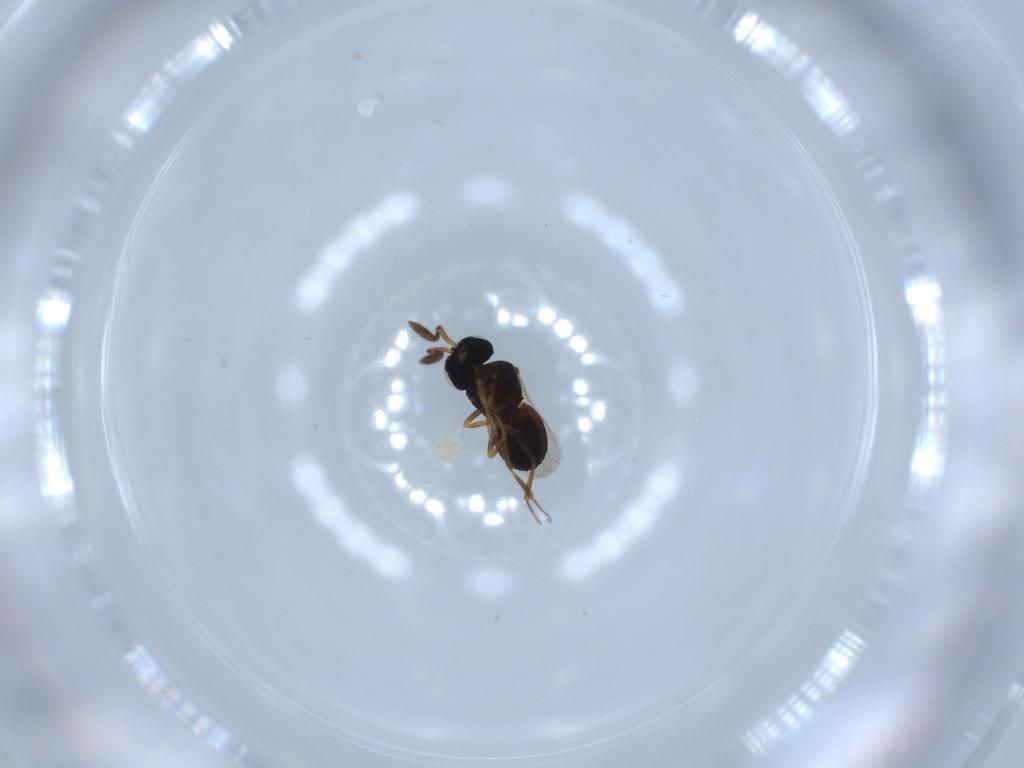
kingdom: Animalia
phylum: Arthropoda
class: Insecta
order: Coleoptera
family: Curculionidae
